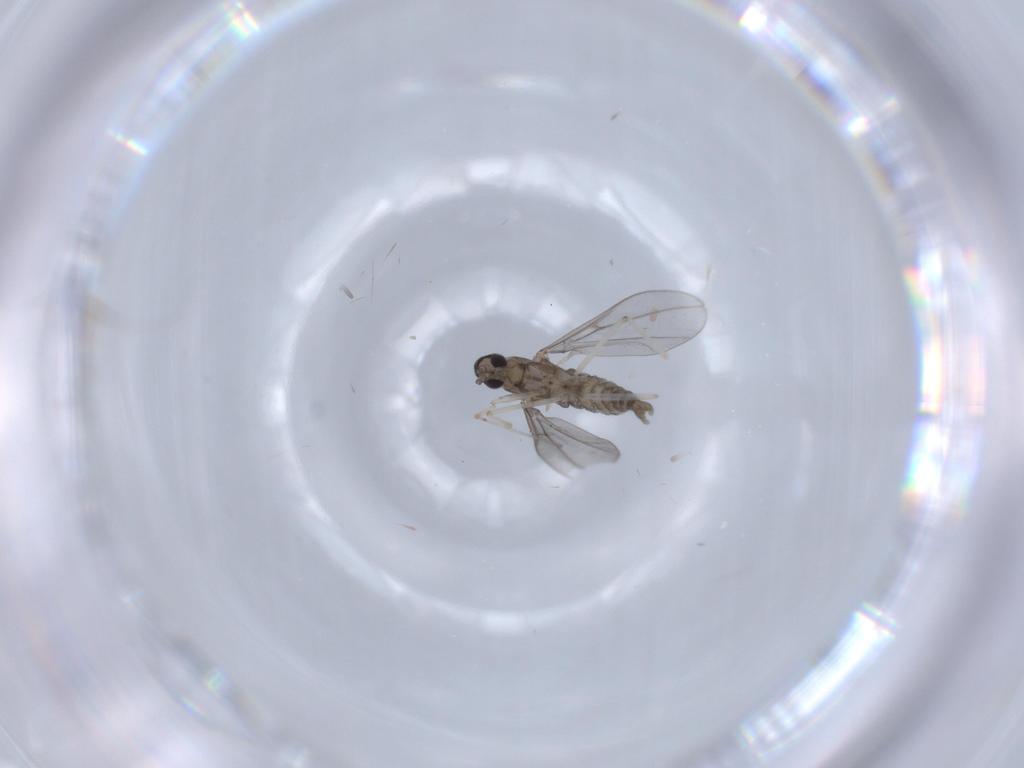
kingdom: Animalia
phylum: Arthropoda
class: Insecta
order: Diptera
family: Cecidomyiidae
